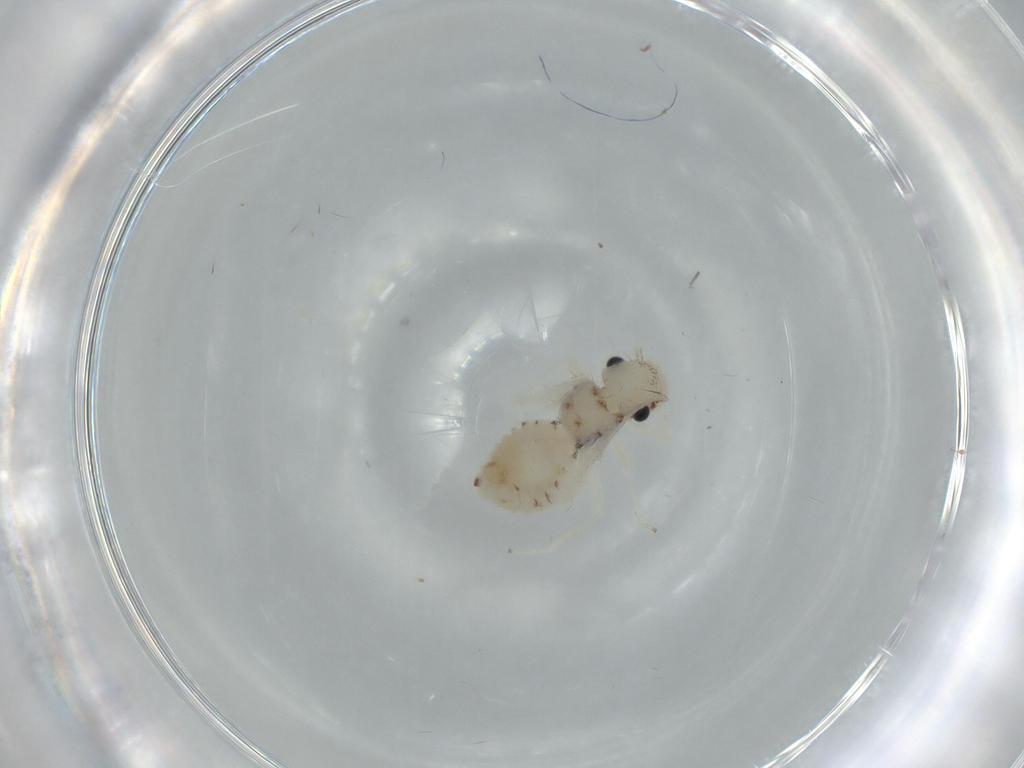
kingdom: Animalia
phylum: Arthropoda
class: Insecta
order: Psocodea
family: Pseudocaeciliidae
